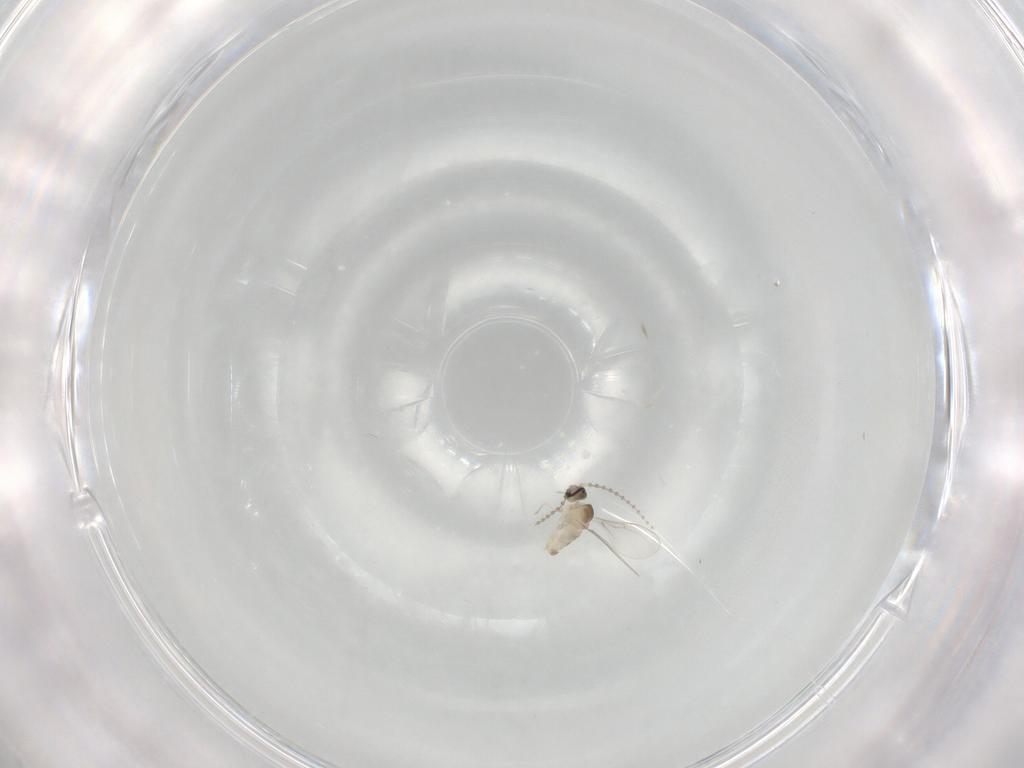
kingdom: Animalia
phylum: Arthropoda
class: Insecta
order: Diptera
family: Cecidomyiidae
